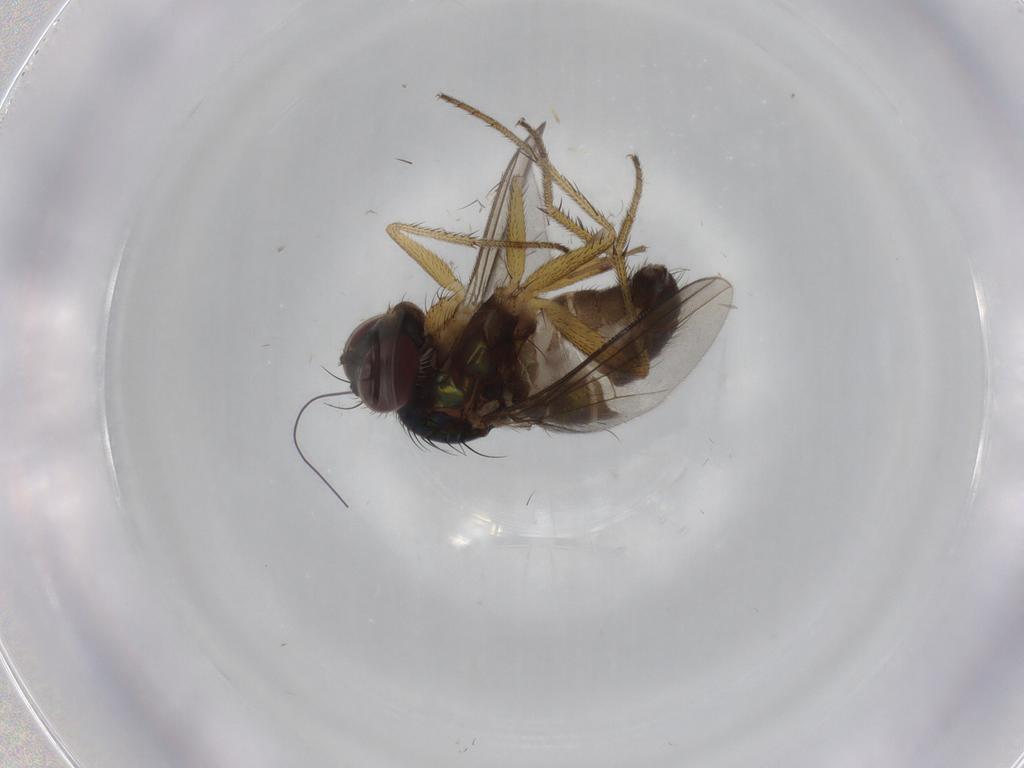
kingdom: Animalia
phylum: Arthropoda
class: Insecta
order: Diptera
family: Dolichopodidae
